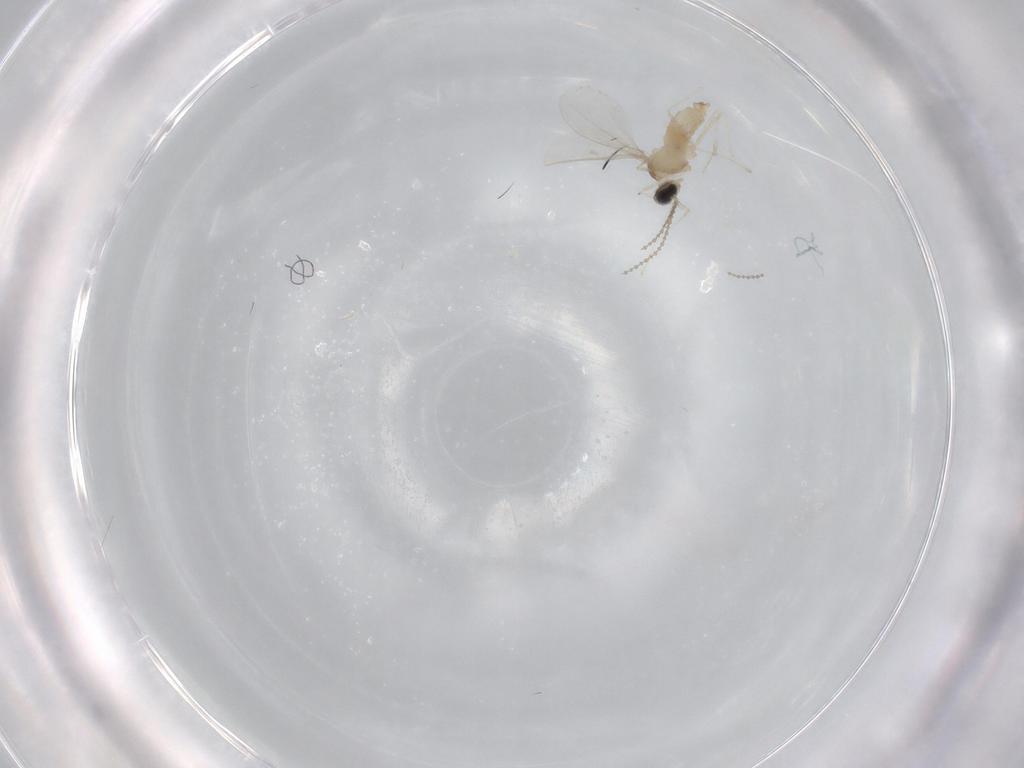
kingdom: Animalia
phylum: Arthropoda
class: Insecta
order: Diptera
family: Cecidomyiidae
